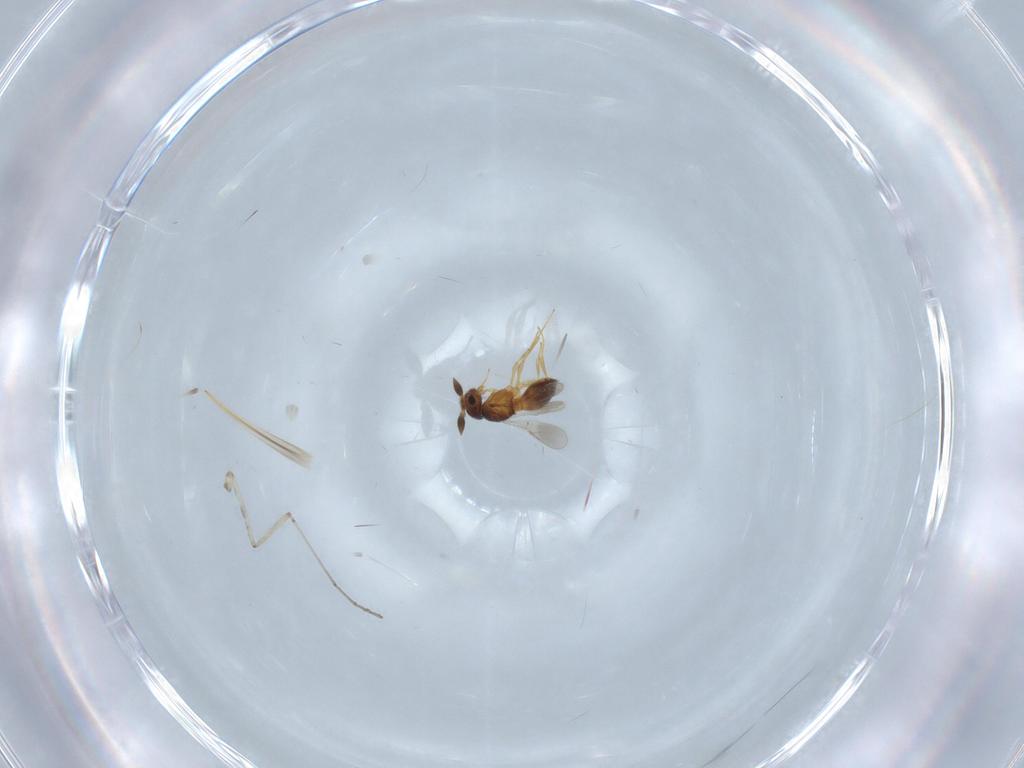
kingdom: Animalia
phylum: Arthropoda
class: Insecta
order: Hymenoptera
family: Scelionidae
